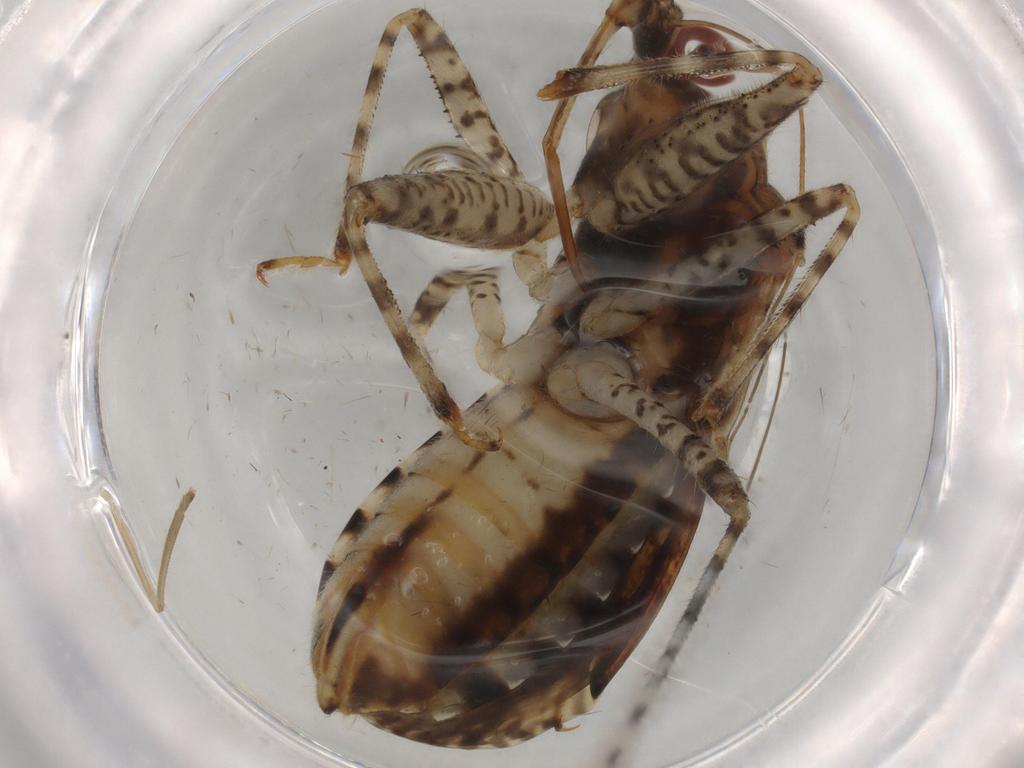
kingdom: Animalia
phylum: Arthropoda
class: Insecta
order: Hemiptera
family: Nabidae
